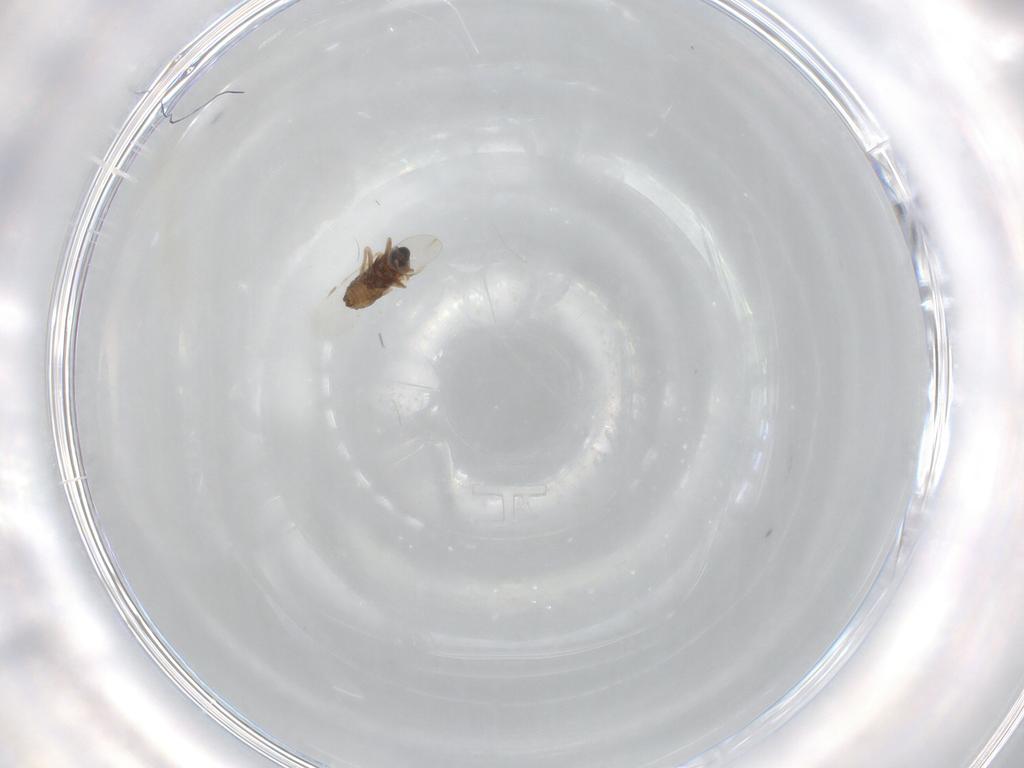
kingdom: Animalia
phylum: Arthropoda
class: Insecta
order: Diptera
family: Cecidomyiidae
